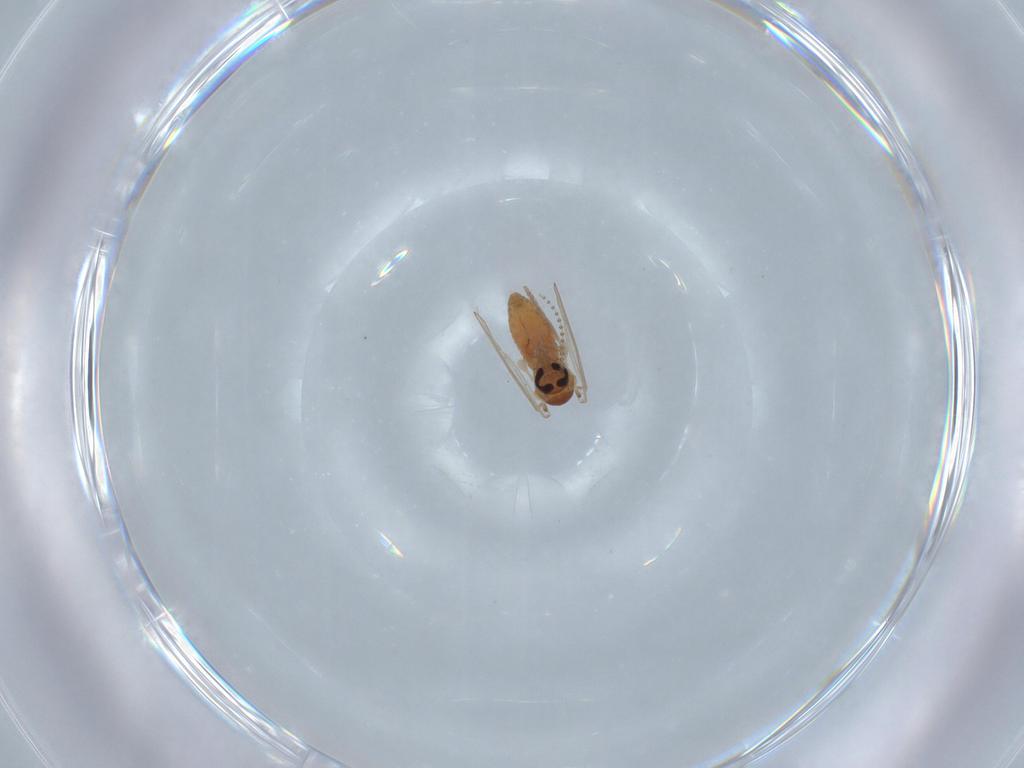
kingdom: Animalia
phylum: Arthropoda
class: Insecta
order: Diptera
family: Psychodidae
